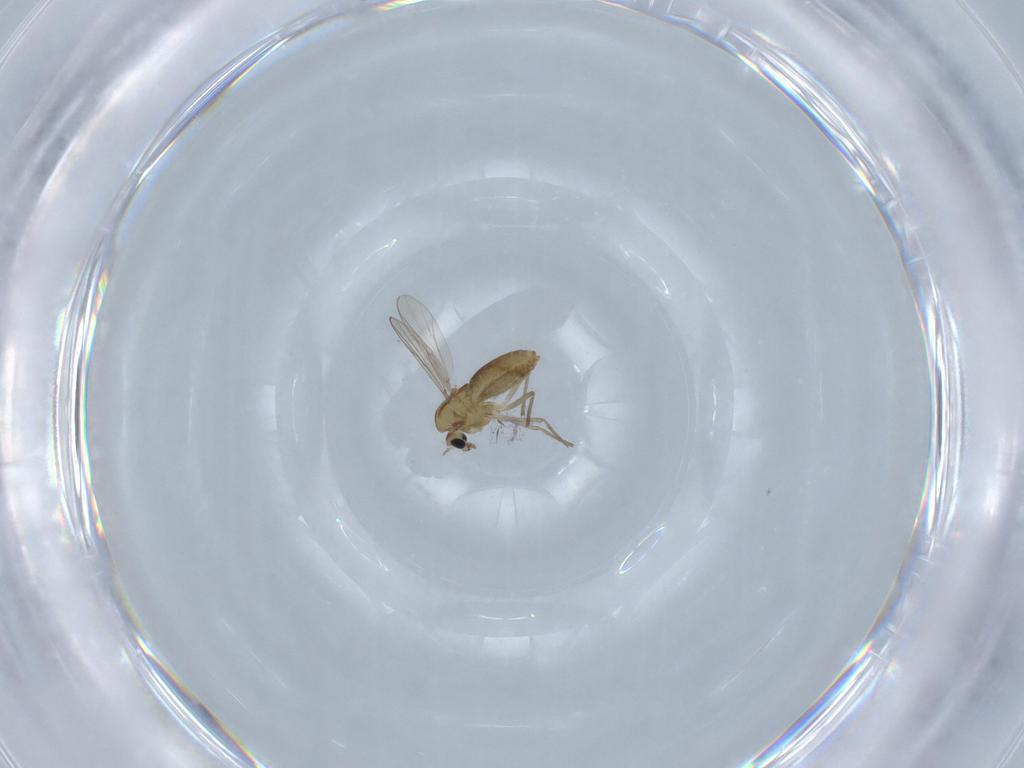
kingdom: Animalia
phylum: Arthropoda
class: Insecta
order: Diptera
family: Chironomidae
